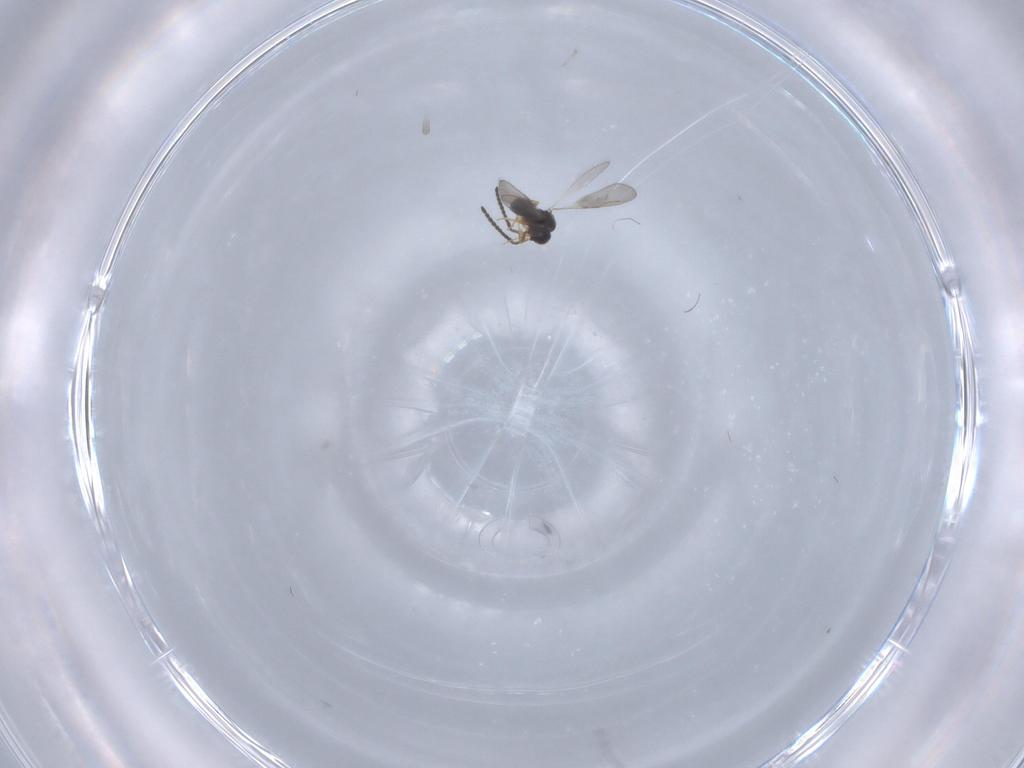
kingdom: Animalia
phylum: Arthropoda
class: Insecta
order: Hymenoptera
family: Ceraphronidae
